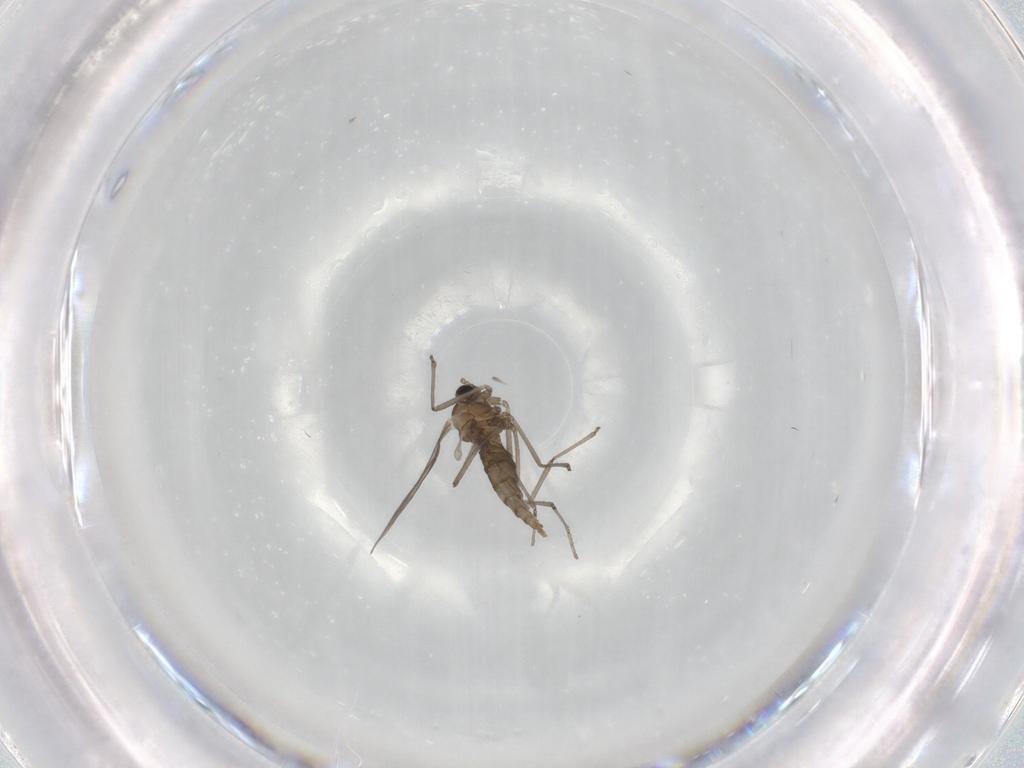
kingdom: Animalia
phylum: Arthropoda
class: Insecta
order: Diptera
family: Cecidomyiidae
